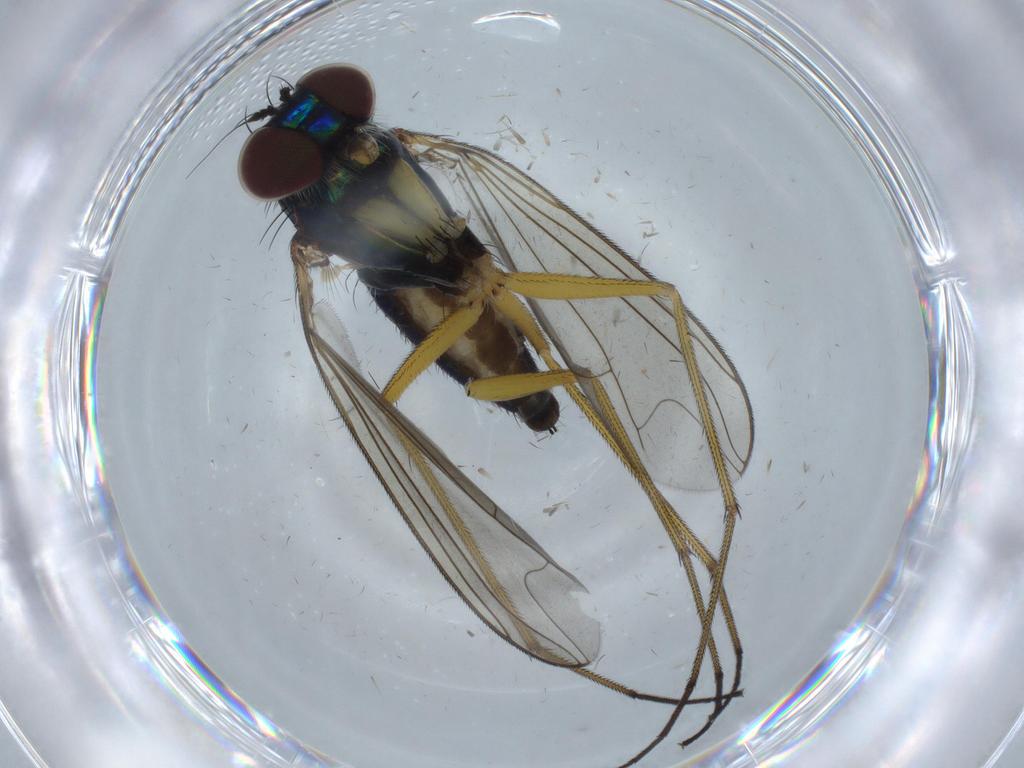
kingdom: Animalia
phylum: Arthropoda
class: Insecta
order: Diptera
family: Dolichopodidae
